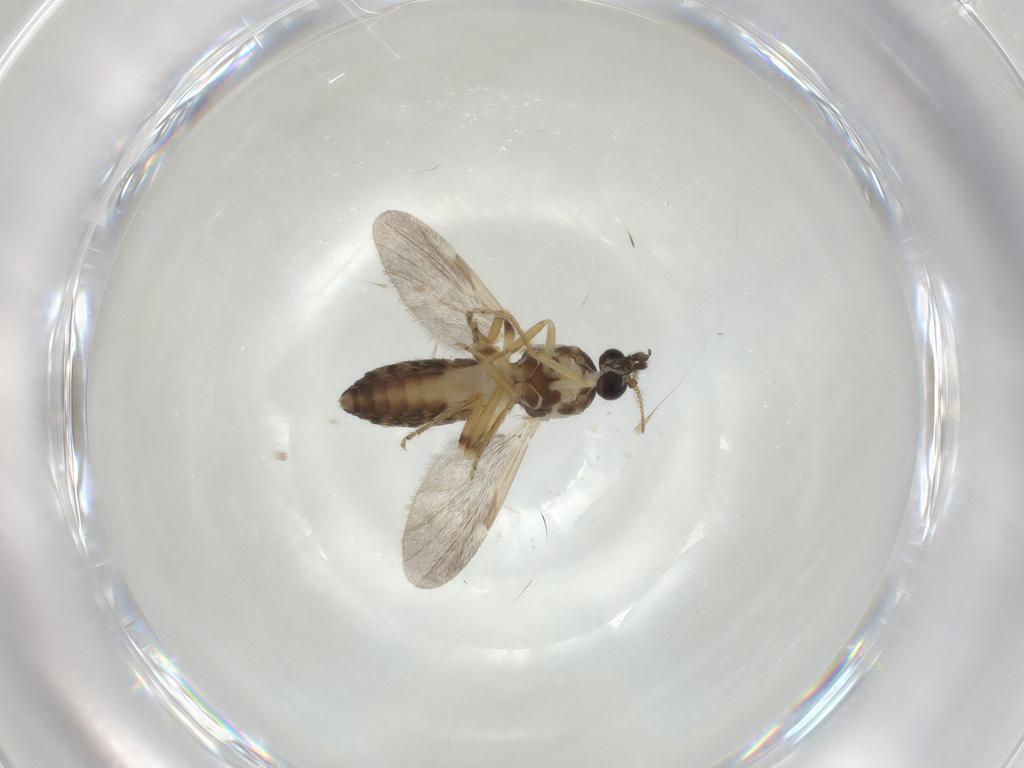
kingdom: Animalia
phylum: Arthropoda
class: Insecta
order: Diptera
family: Ceratopogonidae
